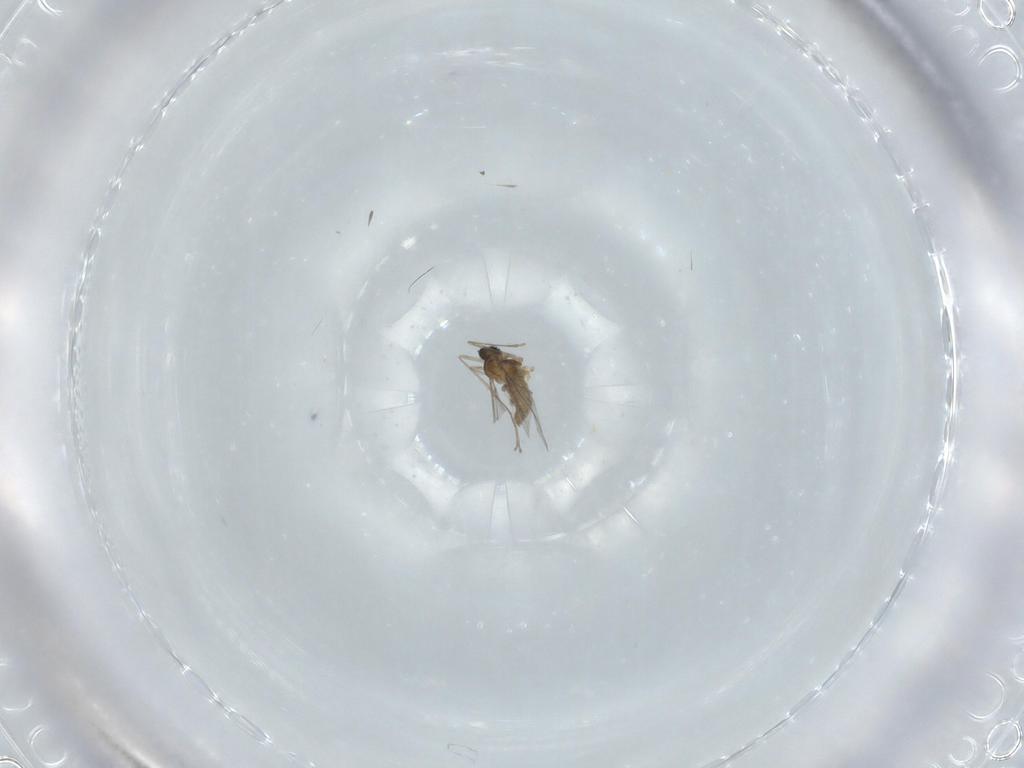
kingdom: Animalia
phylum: Arthropoda
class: Insecta
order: Diptera
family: Cecidomyiidae
